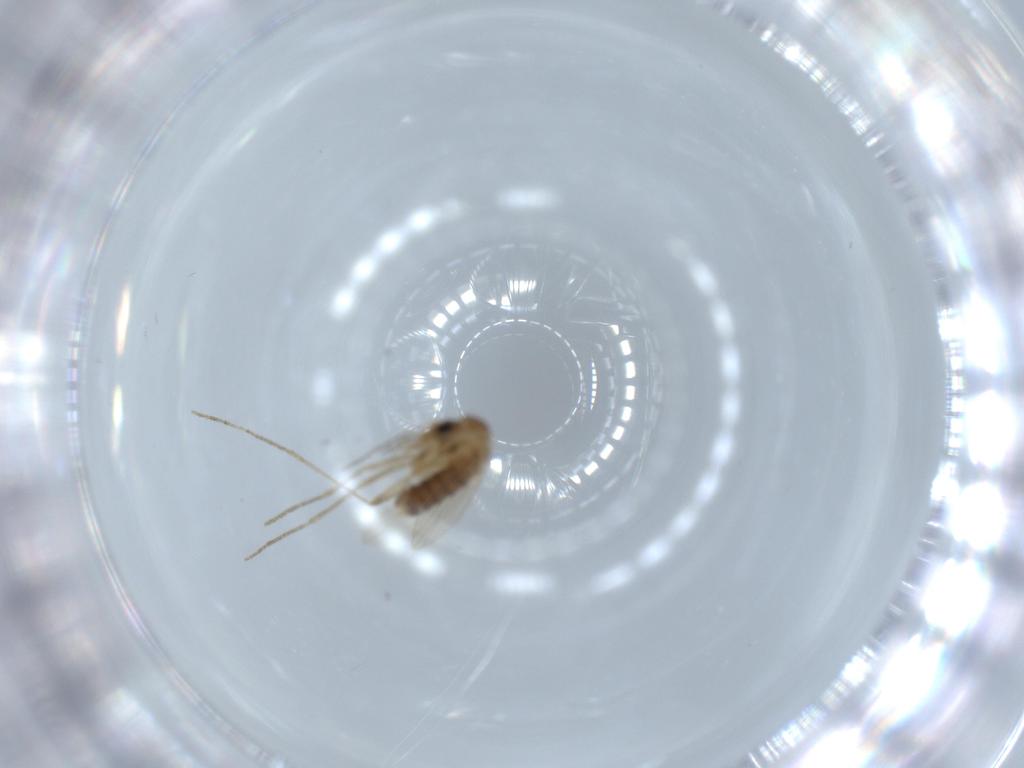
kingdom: Animalia
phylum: Arthropoda
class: Insecta
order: Diptera
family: Psychodidae
